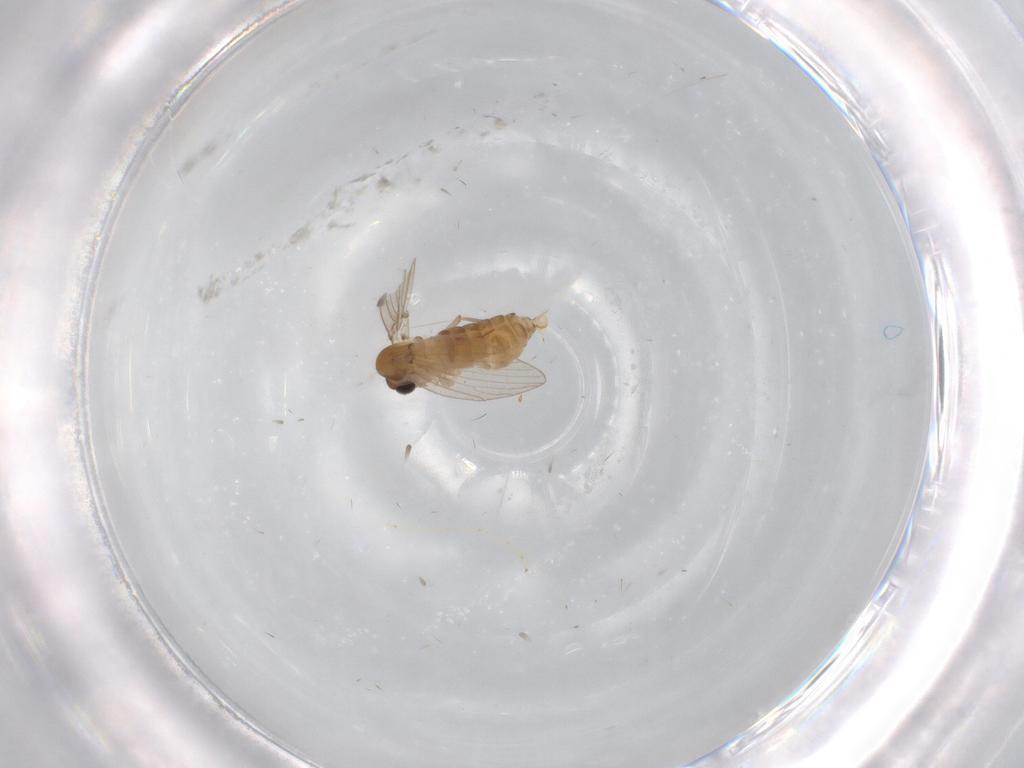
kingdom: Animalia
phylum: Arthropoda
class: Insecta
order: Diptera
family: Psychodidae
